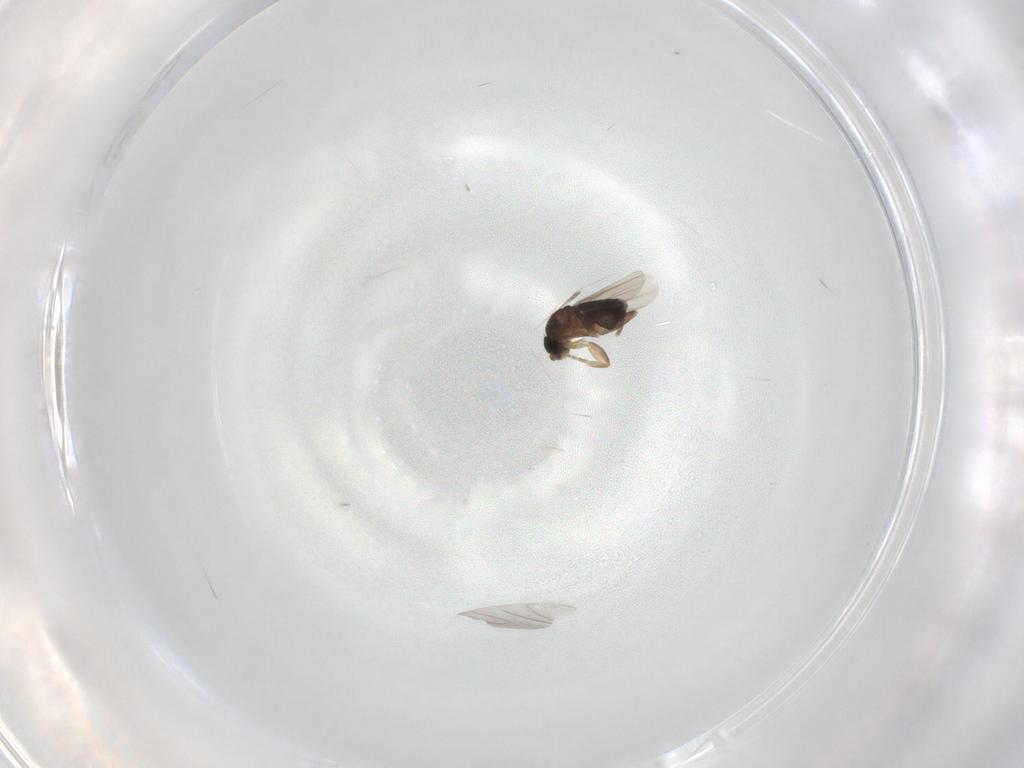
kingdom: Animalia
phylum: Arthropoda
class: Insecta
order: Diptera
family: Phoridae
